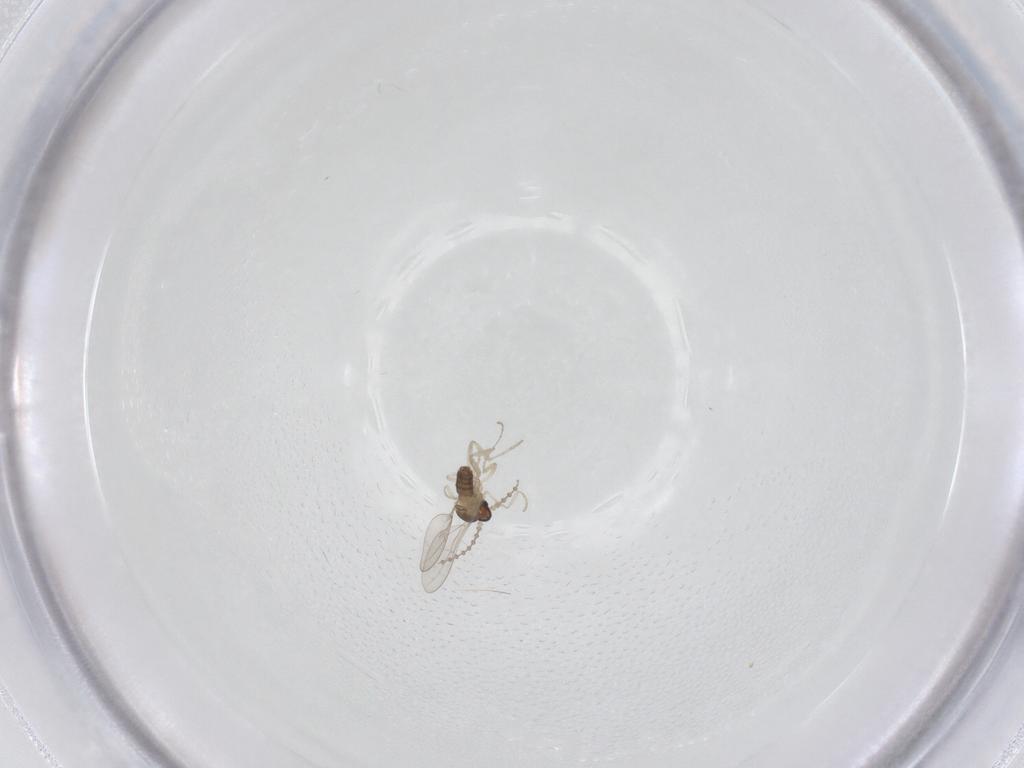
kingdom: Animalia
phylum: Arthropoda
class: Insecta
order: Diptera
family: Cecidomyiidae
